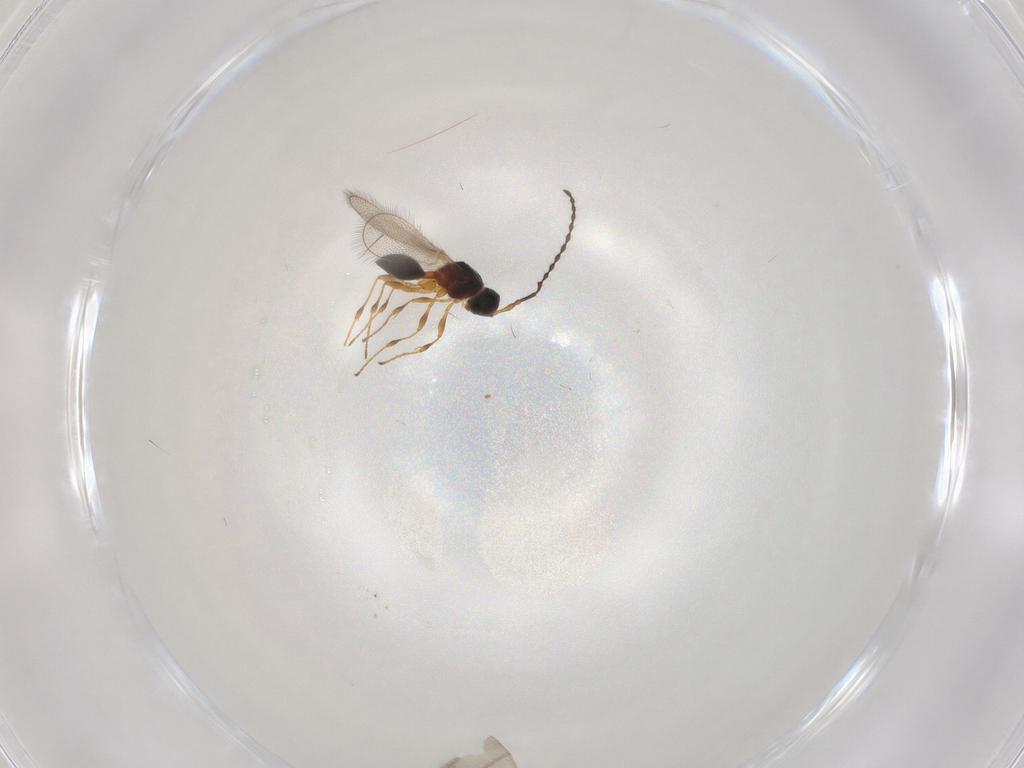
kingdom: Animalia
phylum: Arthropoda
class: Insecta
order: Hymenoptera
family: Diapriidae
